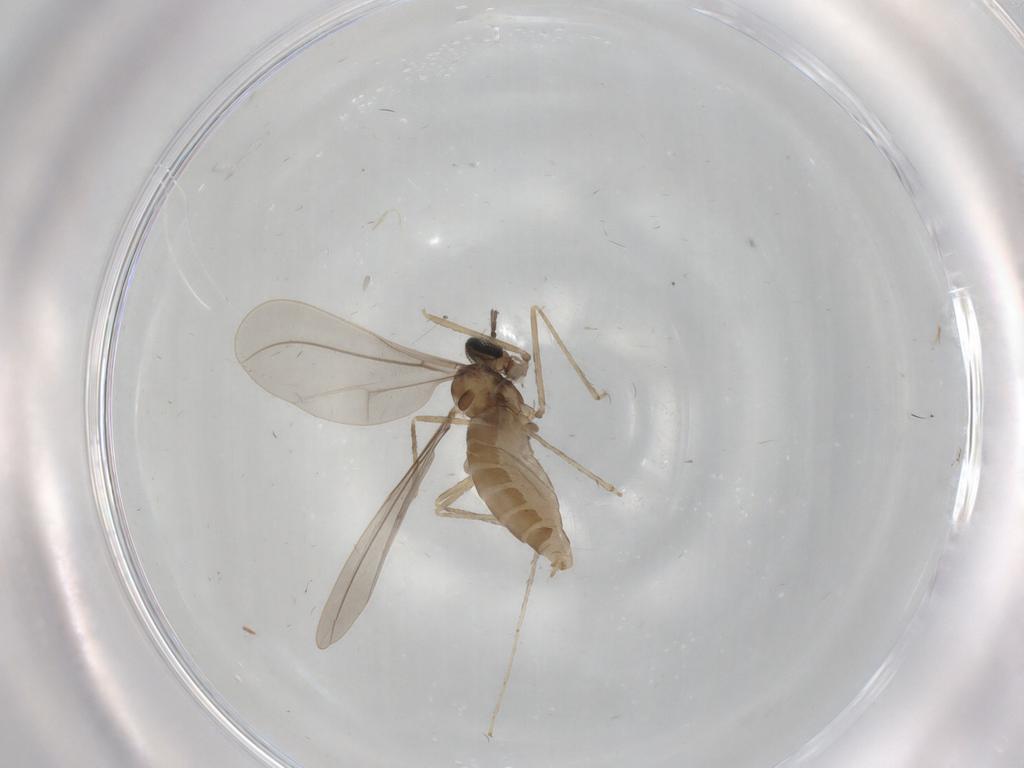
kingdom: Animalia
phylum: Arthropoda
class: Insecta
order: Diptera
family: Cecidomyiidae
